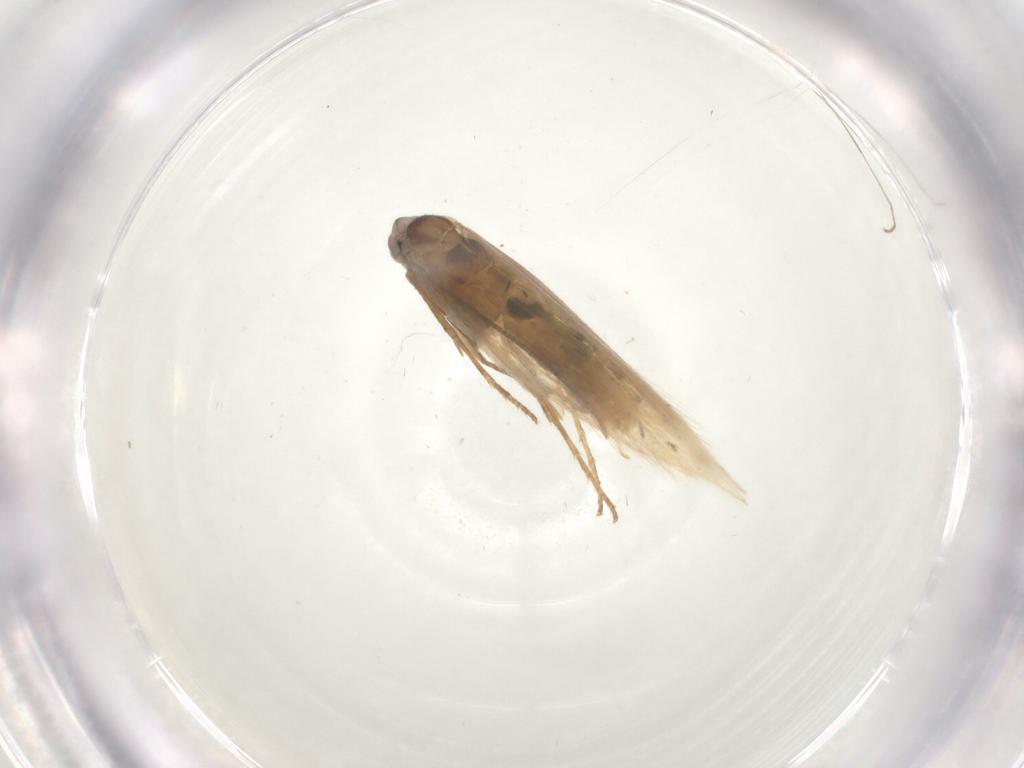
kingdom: Animalia
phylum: Arthropoda
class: Insecta
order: Lepidoptera
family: Bucculatricidae
